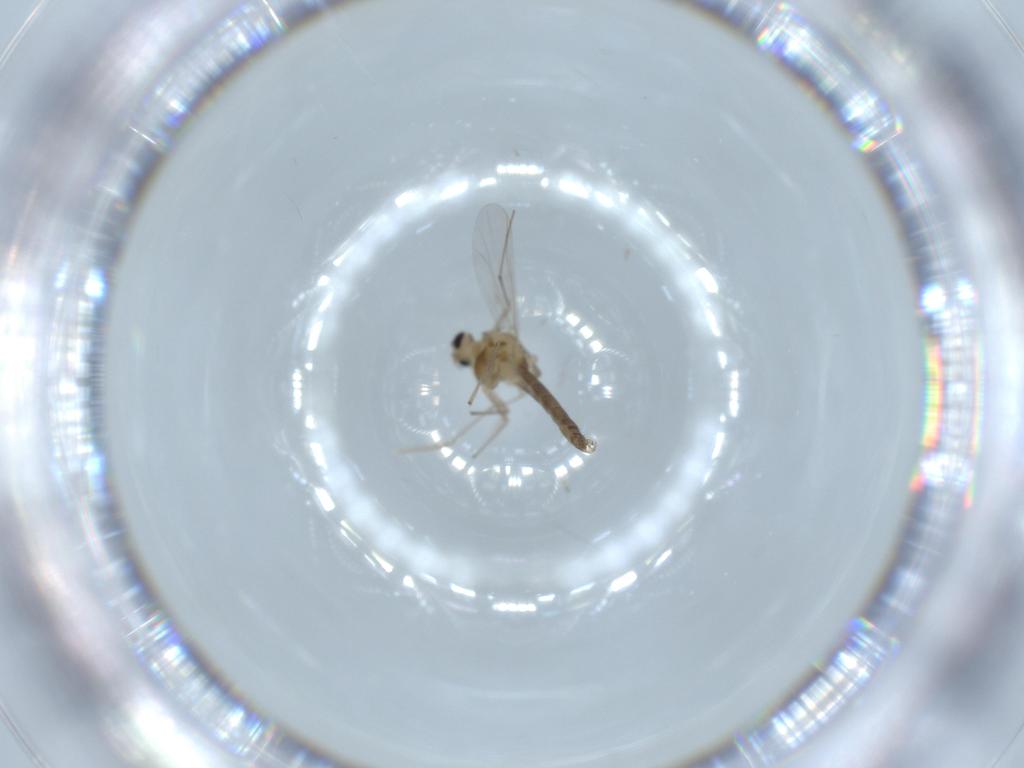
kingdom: Animalia
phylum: Arthropoda
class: Insecta
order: Diptera
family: Chironomidae
